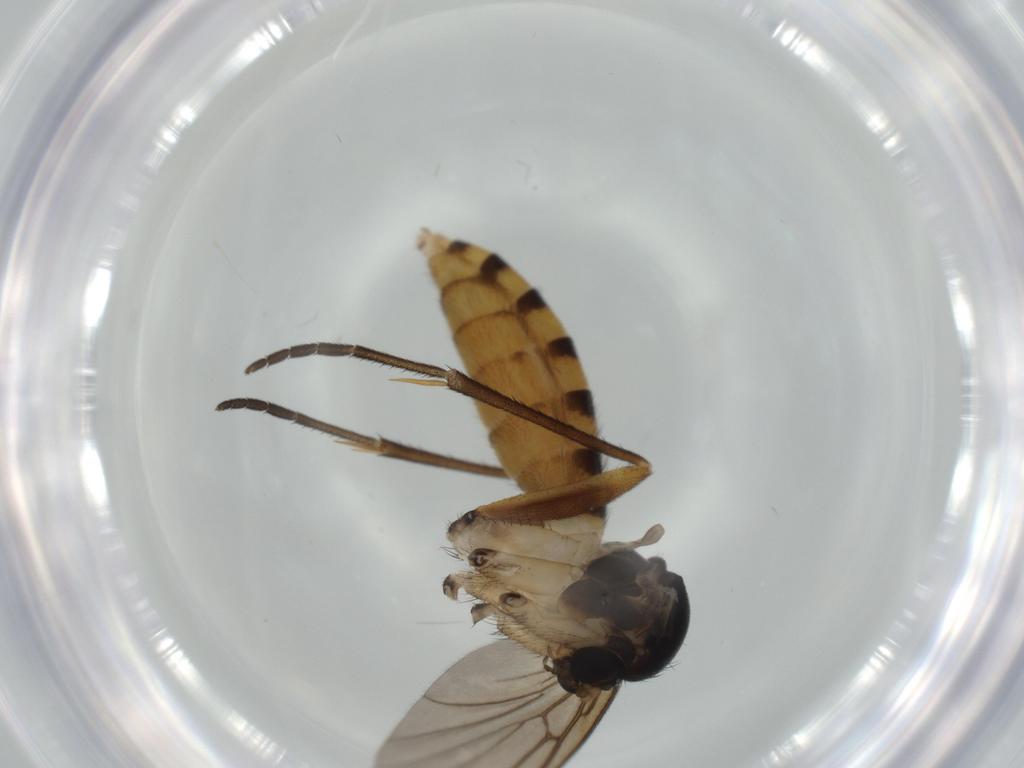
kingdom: Animalia
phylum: Arthropoda
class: Insecta
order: Diptera
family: Mycetophilidae
